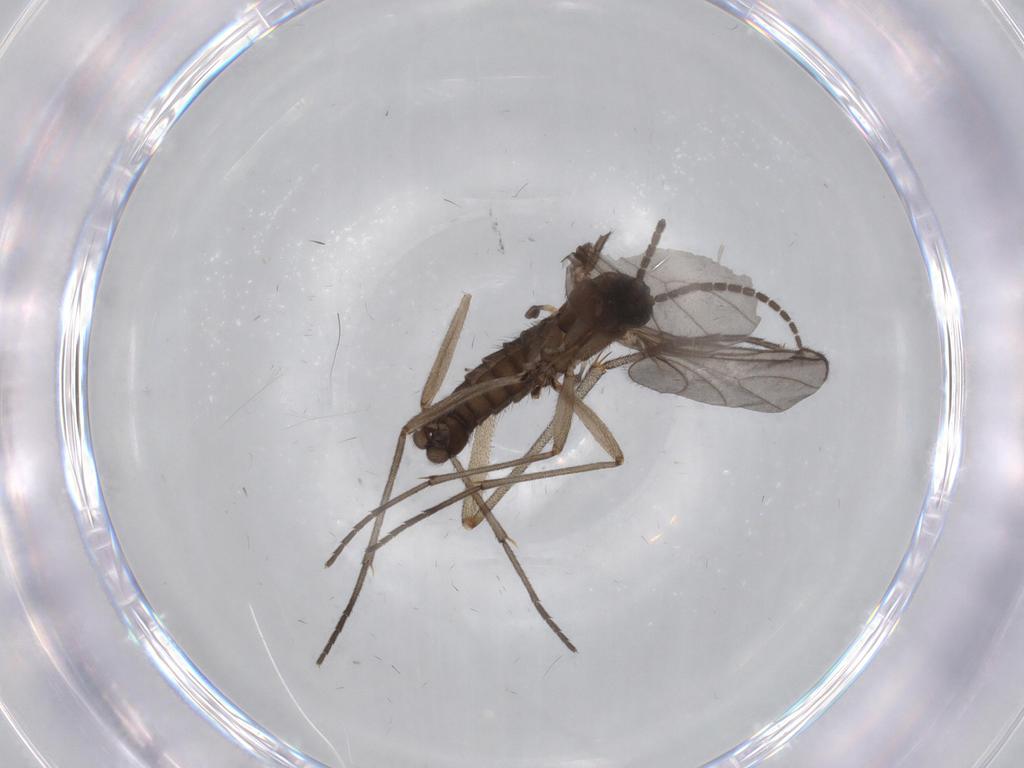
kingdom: Animalia
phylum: Arthropoda
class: Insecta
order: Diptera
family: Sciaridae
